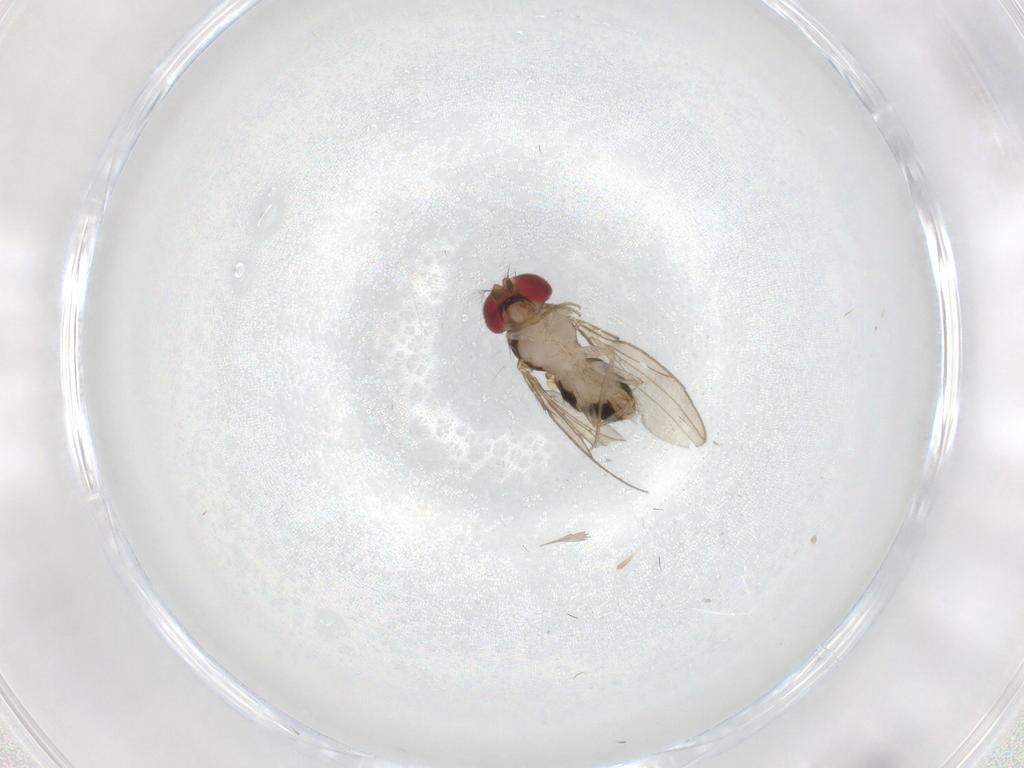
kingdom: Animalia
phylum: Arthropoda
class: Insecta
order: Diptera
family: Drosophilidae
